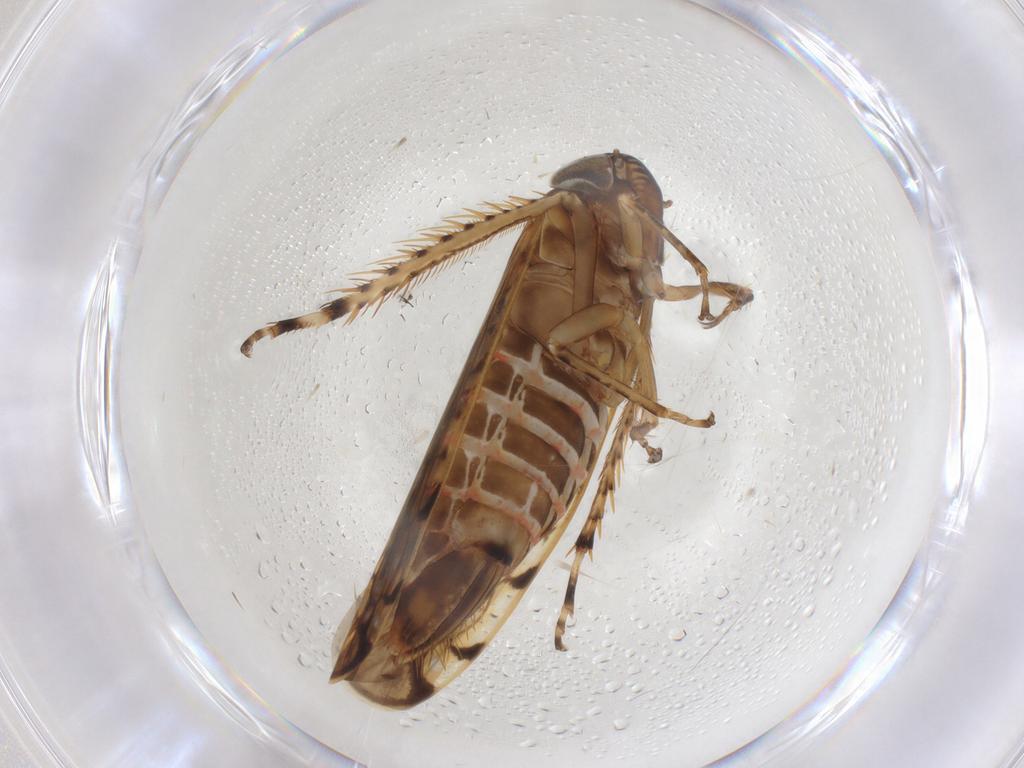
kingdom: Animalia
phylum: Arthropoda
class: Insecta
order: Hemiptera
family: Cicadellidae
